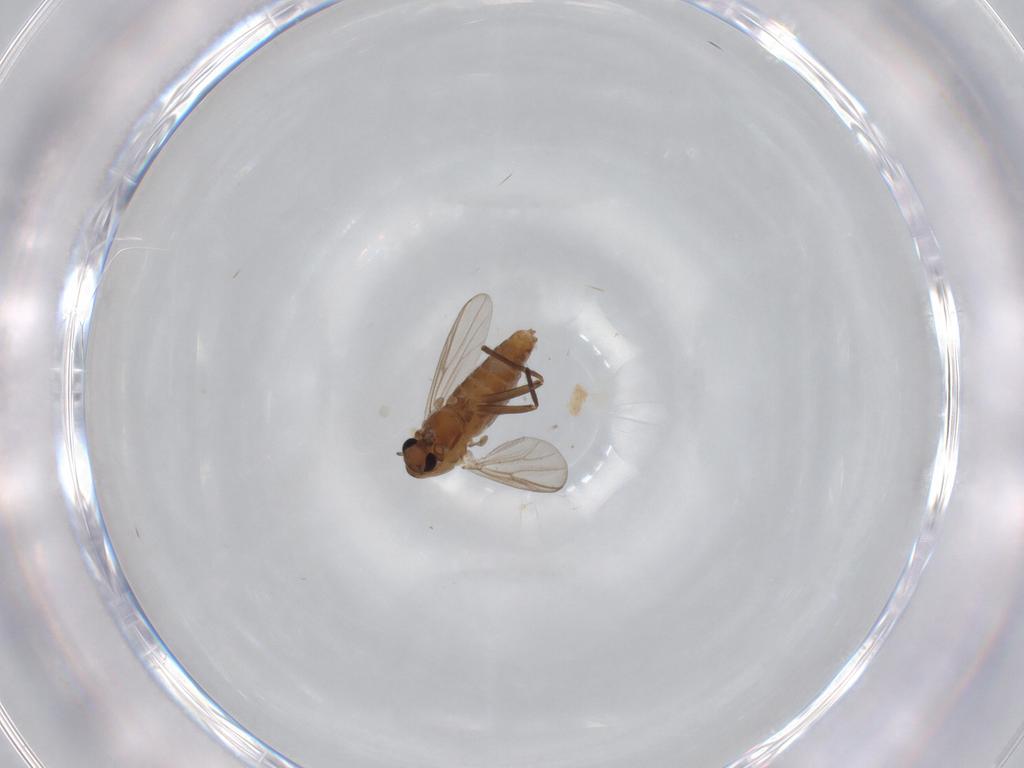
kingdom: Animalia
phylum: Arthropoda
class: Insecta
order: Diptera
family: Chironomidae
